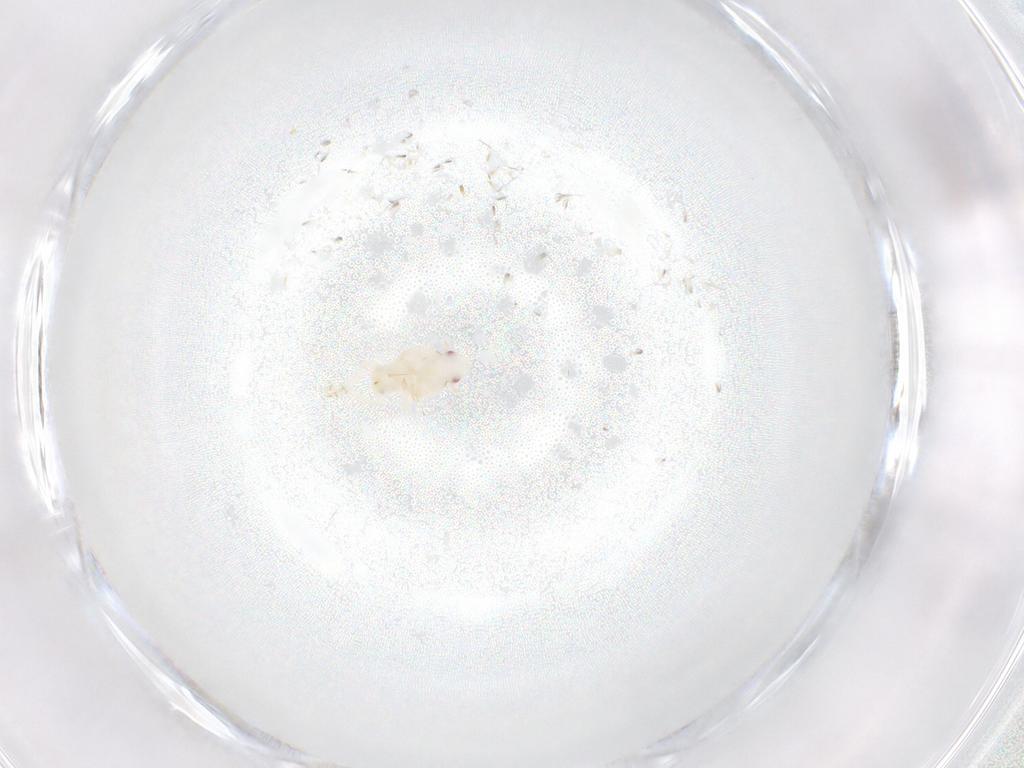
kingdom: Animalia
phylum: Arthropoda
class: Insecta
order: Hemiptera
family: Flatidae
